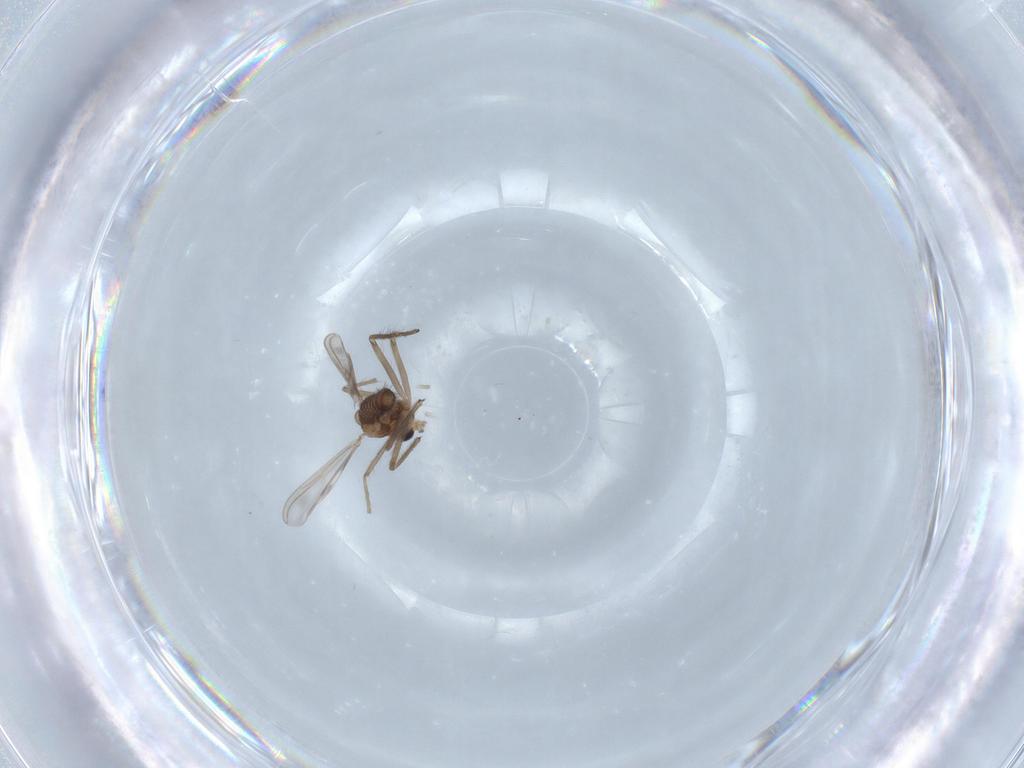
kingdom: Animalia
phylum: Arthropoda
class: Insecta
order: Diptera
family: Chironomidae
